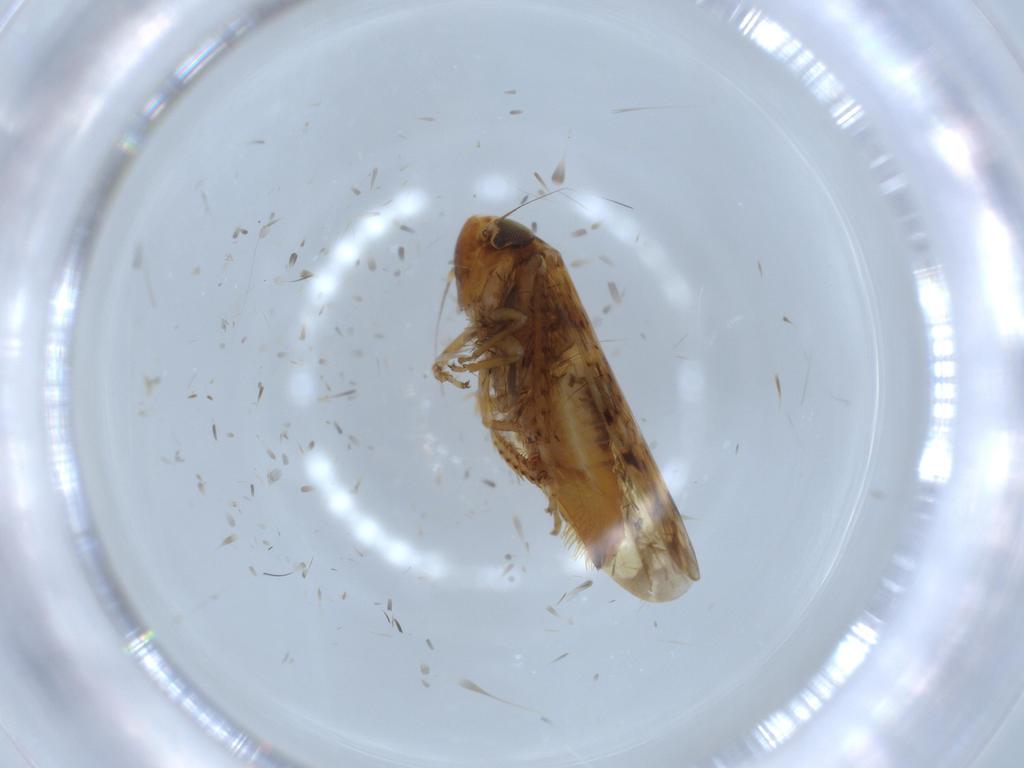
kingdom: Animalia
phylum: Arthropoda
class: Insecta
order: Hemiptera
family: Cicadellidae
